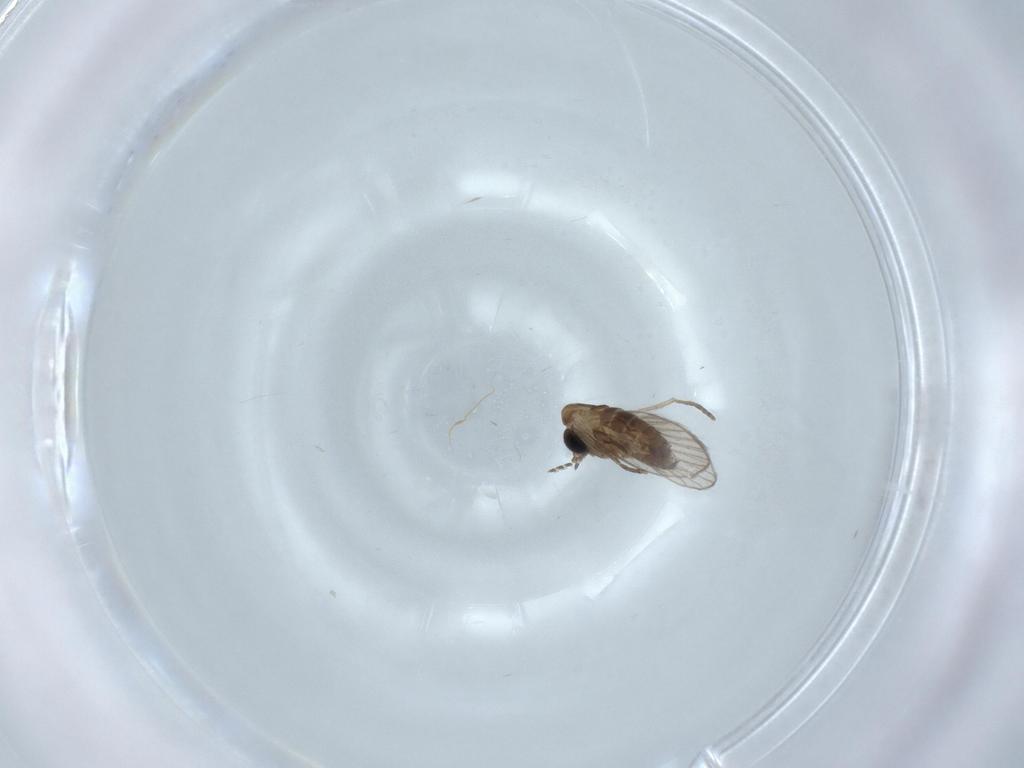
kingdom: Animalia
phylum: Arthropoda
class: Insecta
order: Diptera
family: Psychodidae
